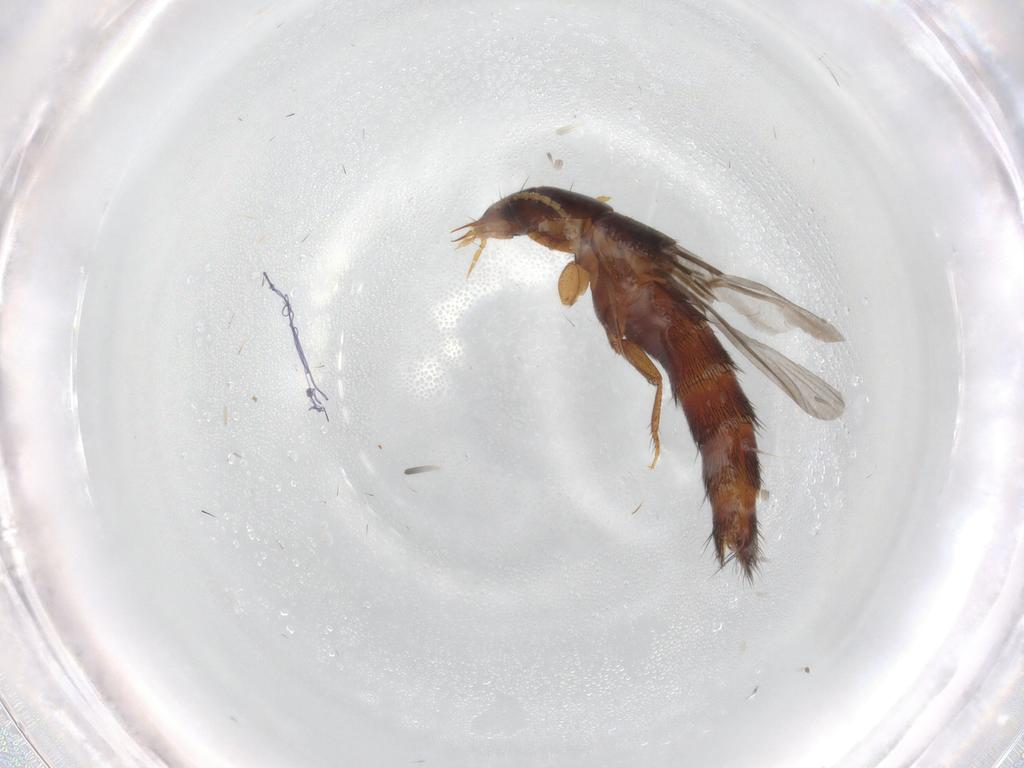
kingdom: Animalia
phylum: Arthropoda
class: Insecta
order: Coleoptera
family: Staphylinidae
